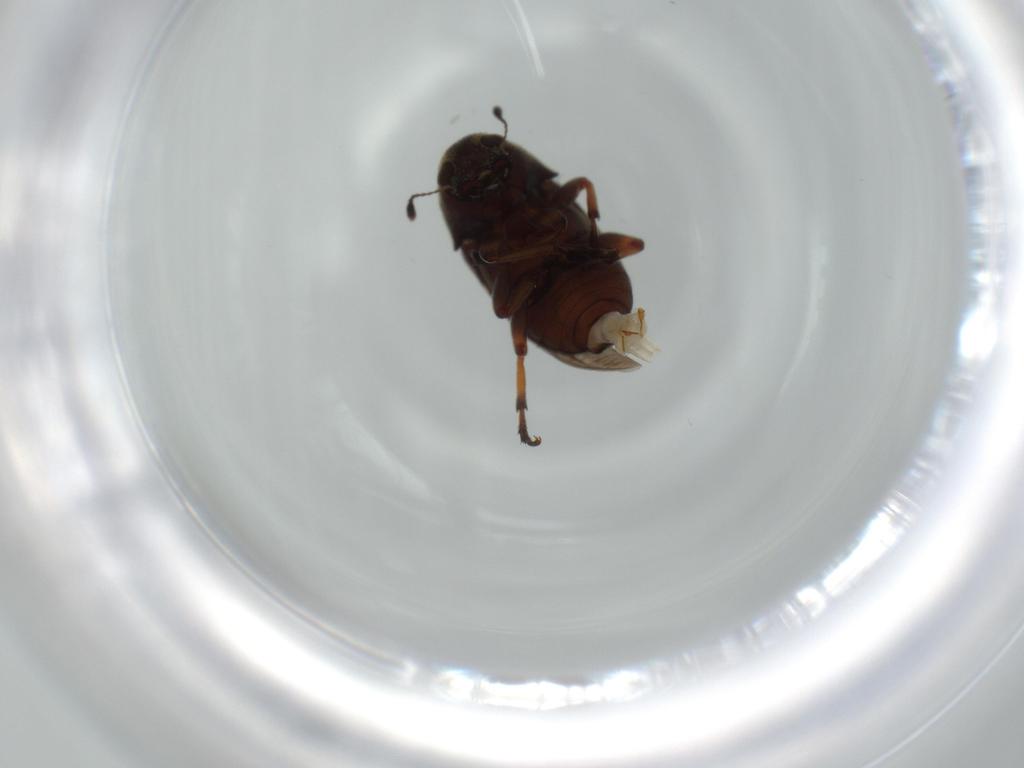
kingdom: Animalia
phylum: Arthropoda
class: Insecta
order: Coleoptera
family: Anthribidae
